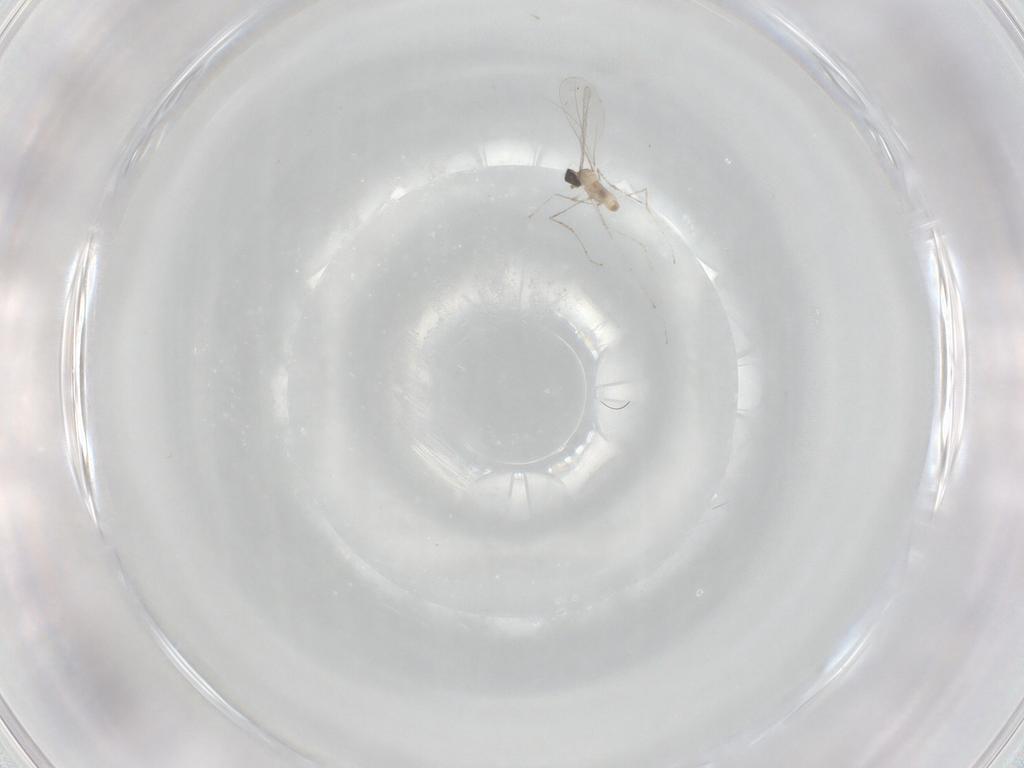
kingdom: Animalia
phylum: Arthropoda
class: Insecta
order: Diptera
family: Cecidomyiidae
